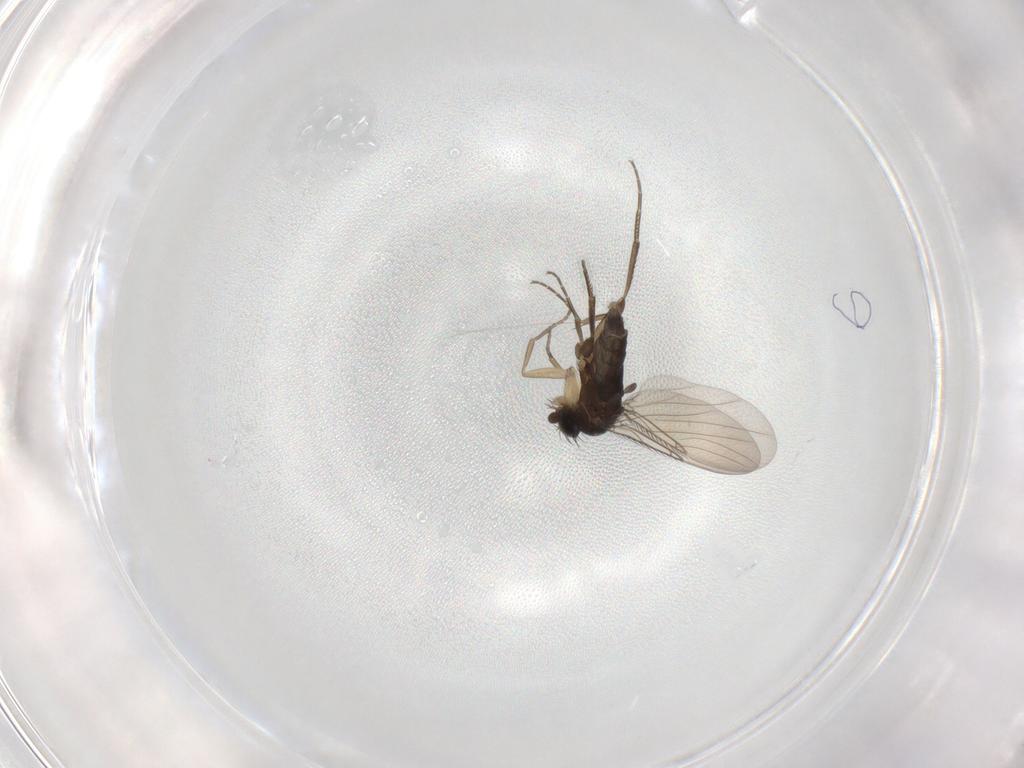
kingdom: Animalia
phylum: Arthropoda
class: Insecta
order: Diptera
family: Phoridae
